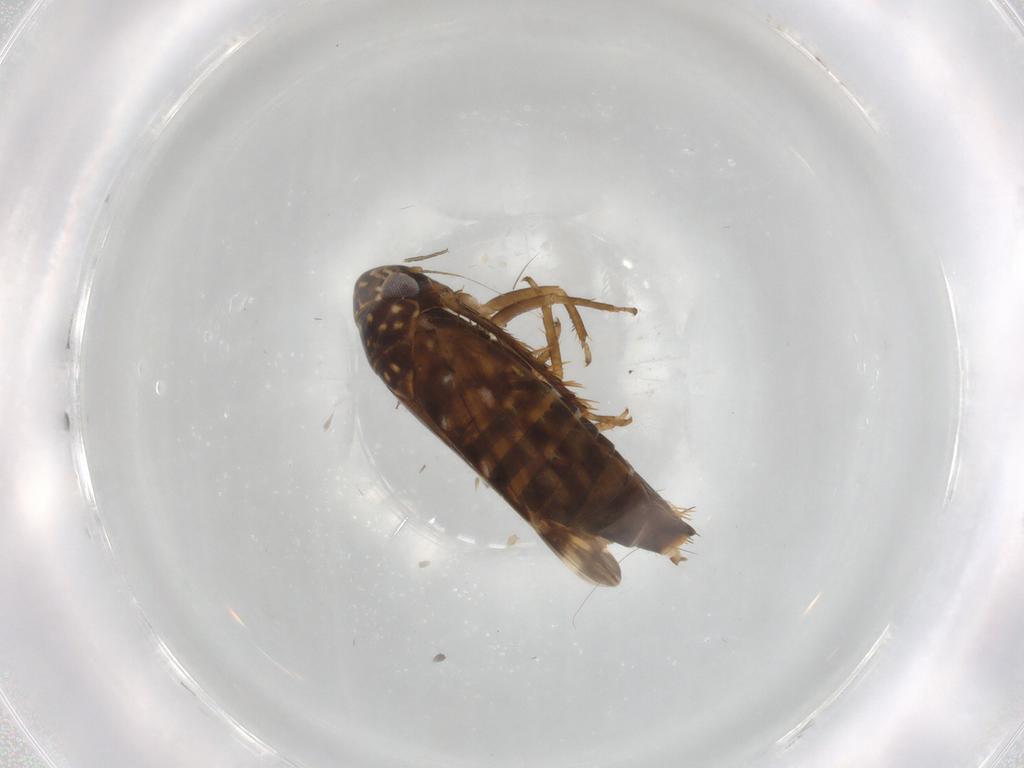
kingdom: Animalia
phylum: Arthropoda
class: Insecta
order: Hemiptera
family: Cicadellidae
